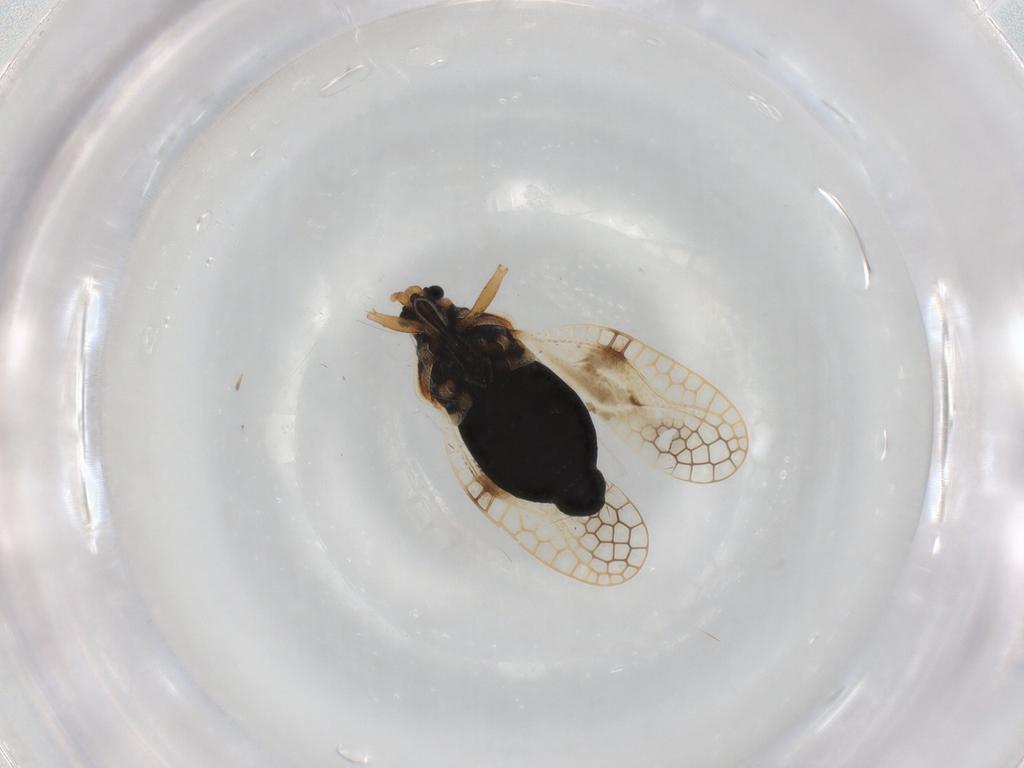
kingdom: Animalia
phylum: Arthropoda
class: Insecta
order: Hemiptera
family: Tingidae
